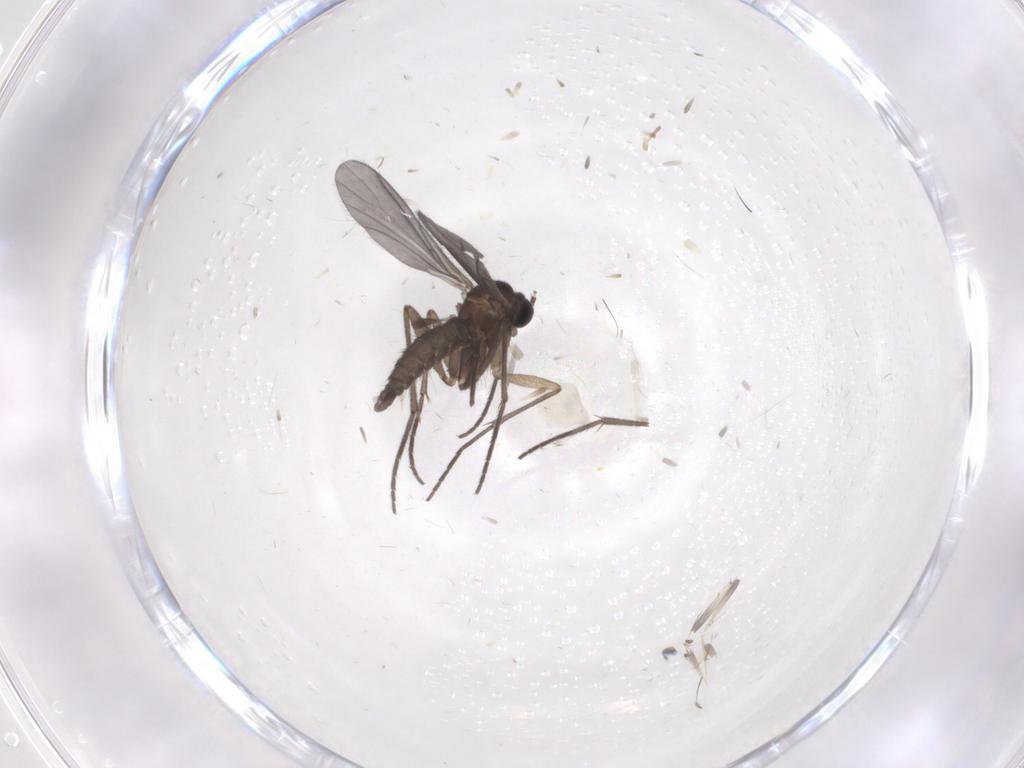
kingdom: Animalia
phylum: Arthropoda
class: Insecta
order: Diptera
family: Sciaridae
